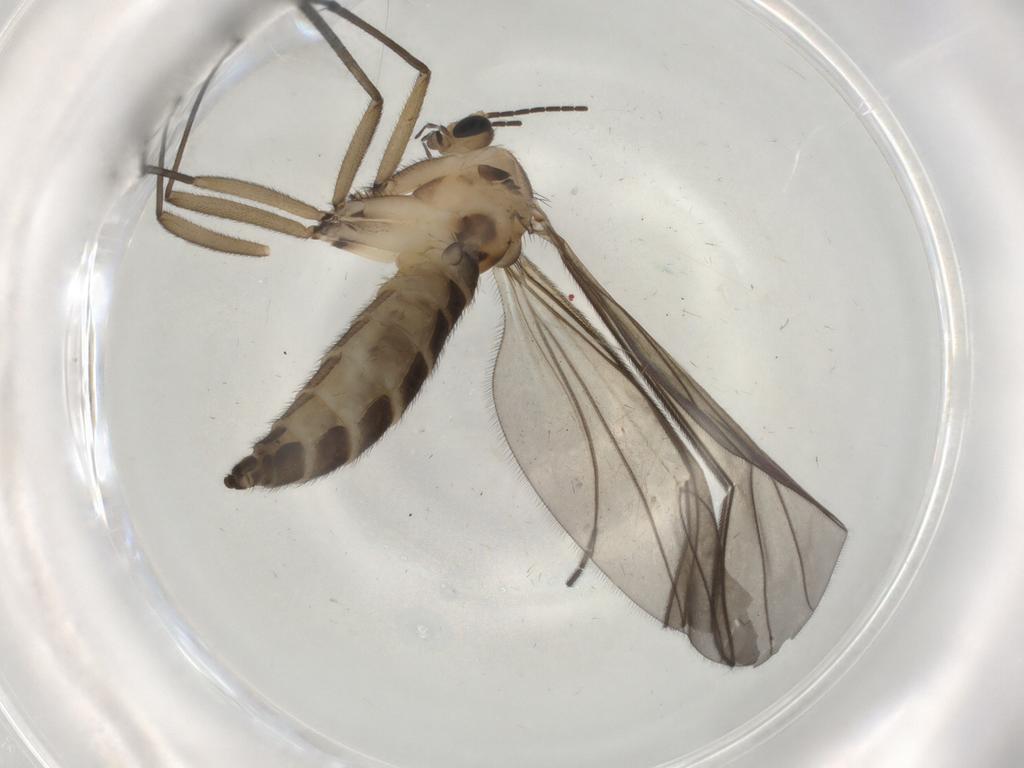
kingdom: Animalia
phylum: Arthropoda
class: Insecta
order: Diptera
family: Sciaridae
